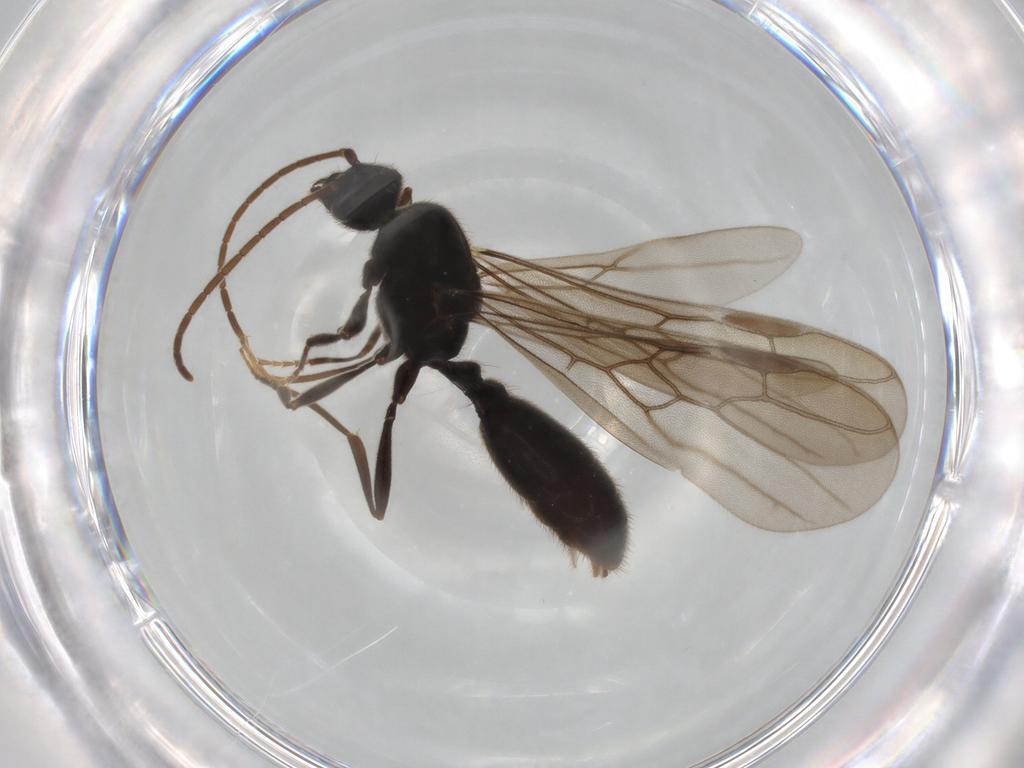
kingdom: Animalia
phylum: Arthropoda
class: Insecta
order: Hymenoptera
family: Formicidae
